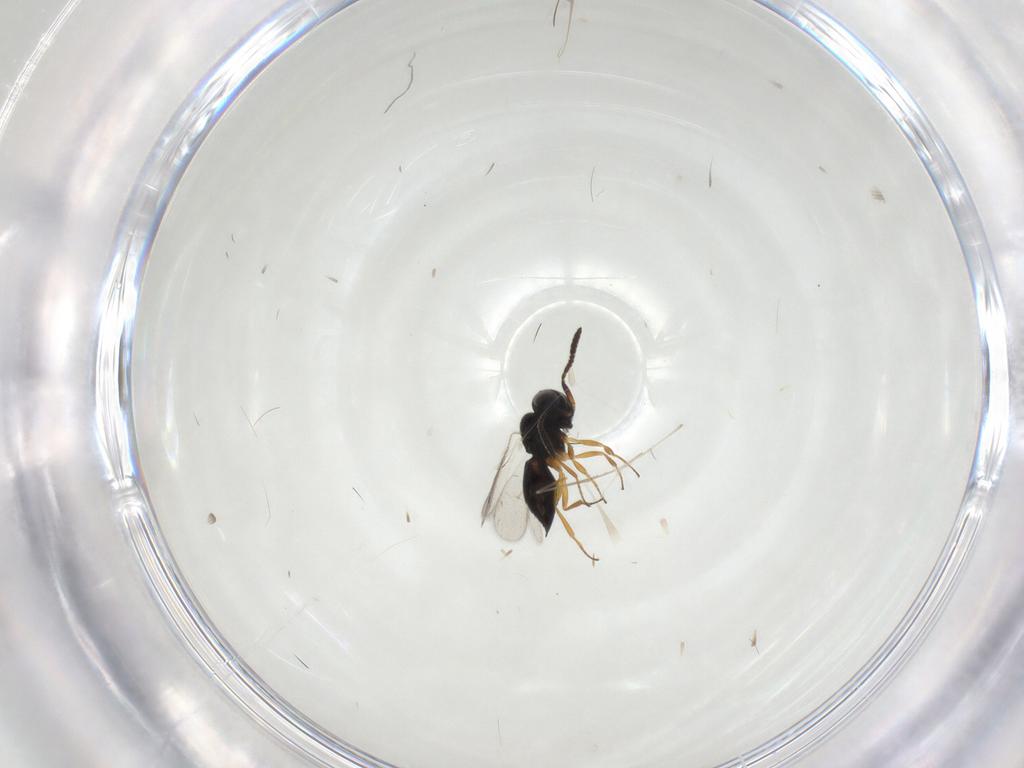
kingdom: Animalia
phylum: Arthropoda
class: Insecta
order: Hymenoptera
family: Scelionidae
